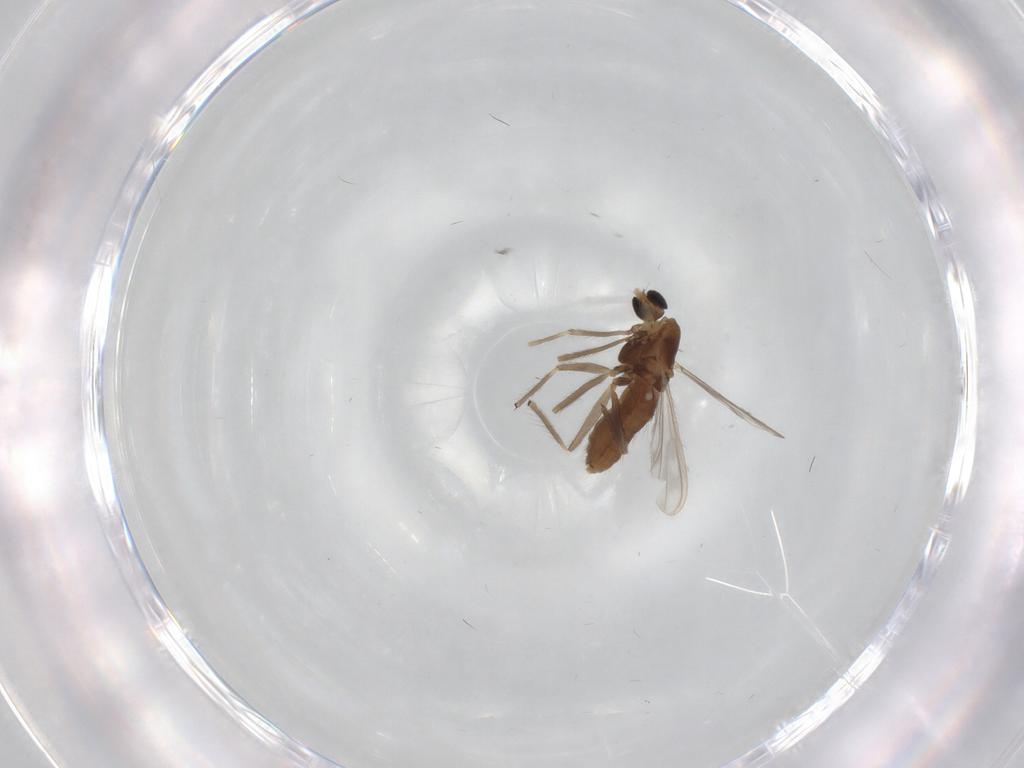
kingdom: Animalia
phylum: Arthropoda
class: Insecta
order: Diptera
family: Chironomidae
